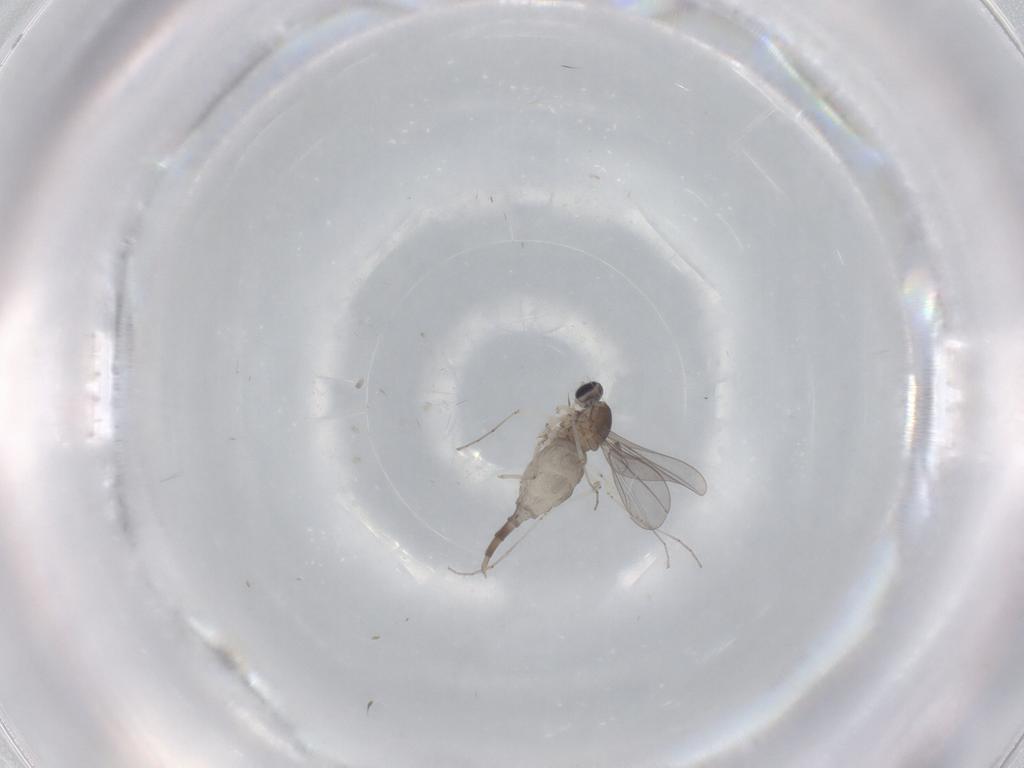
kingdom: Animalia
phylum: Arthropoda
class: Insecta
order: Diptera
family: Cecidomyiidae
